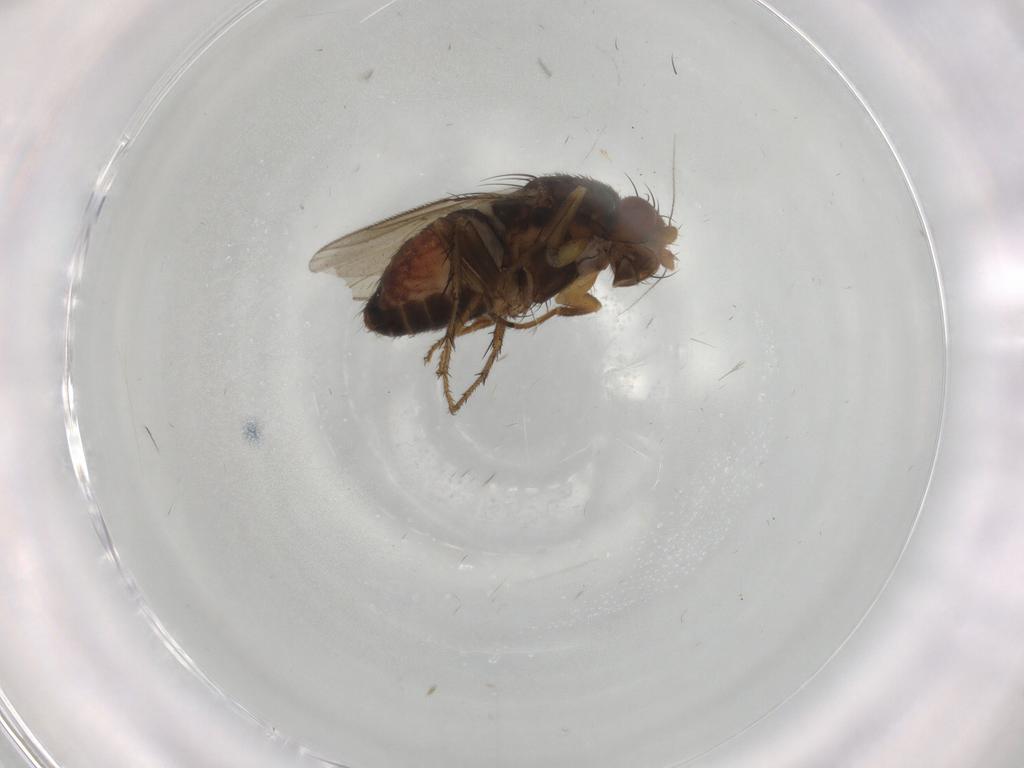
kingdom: Animalia
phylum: Arthropoda
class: Insecta
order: Diptera
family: Sphaeroceridae
